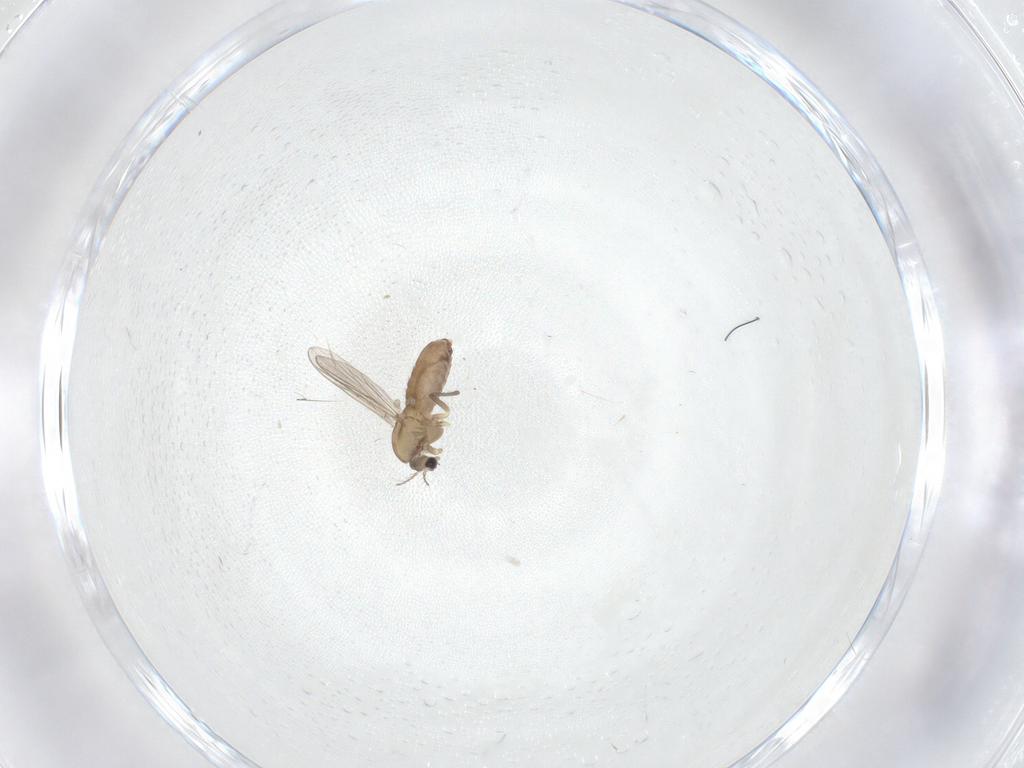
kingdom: Animalia
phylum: Arthropoda
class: Insecta
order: Diptera
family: Chironomidae
